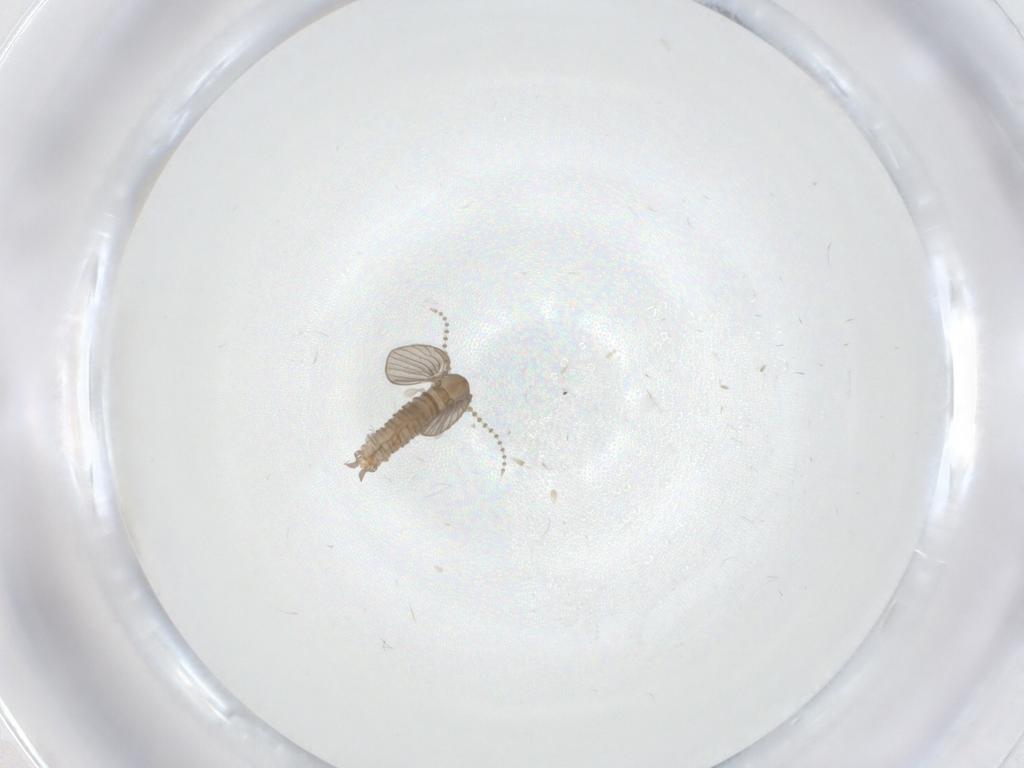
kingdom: Animalia
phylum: Arthropoda
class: Insecta
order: Diptera
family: Psychodidae
